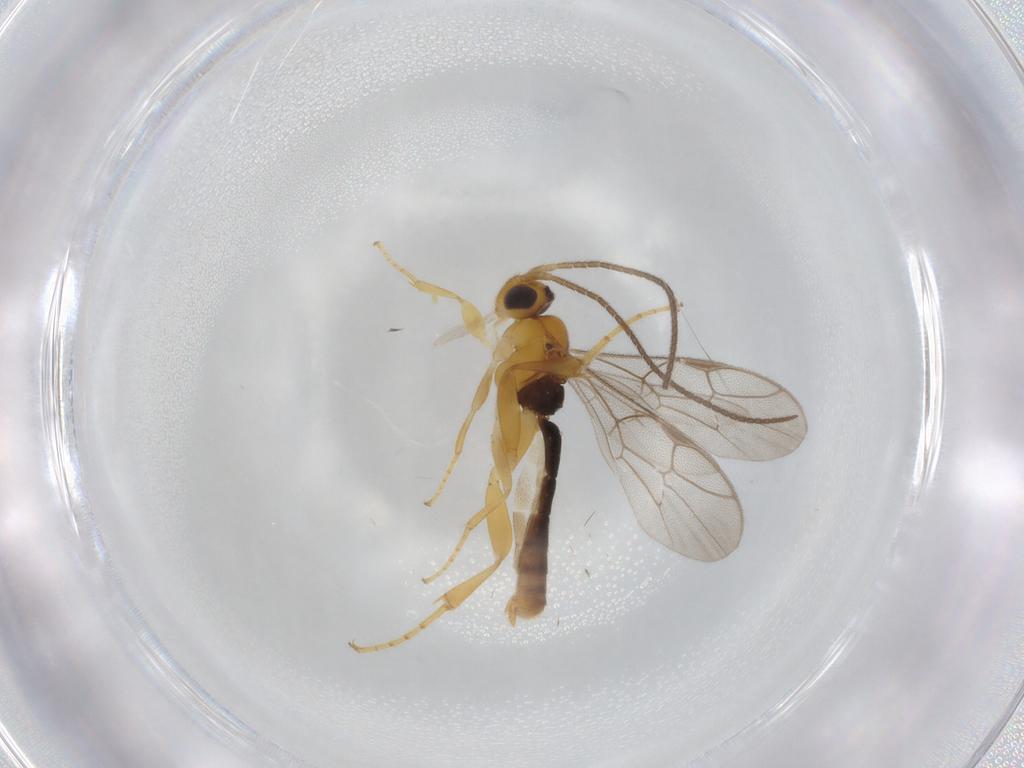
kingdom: Animalia
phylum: Arthropoda
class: Insecta
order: Hymenoptera
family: Ichneumonidae
